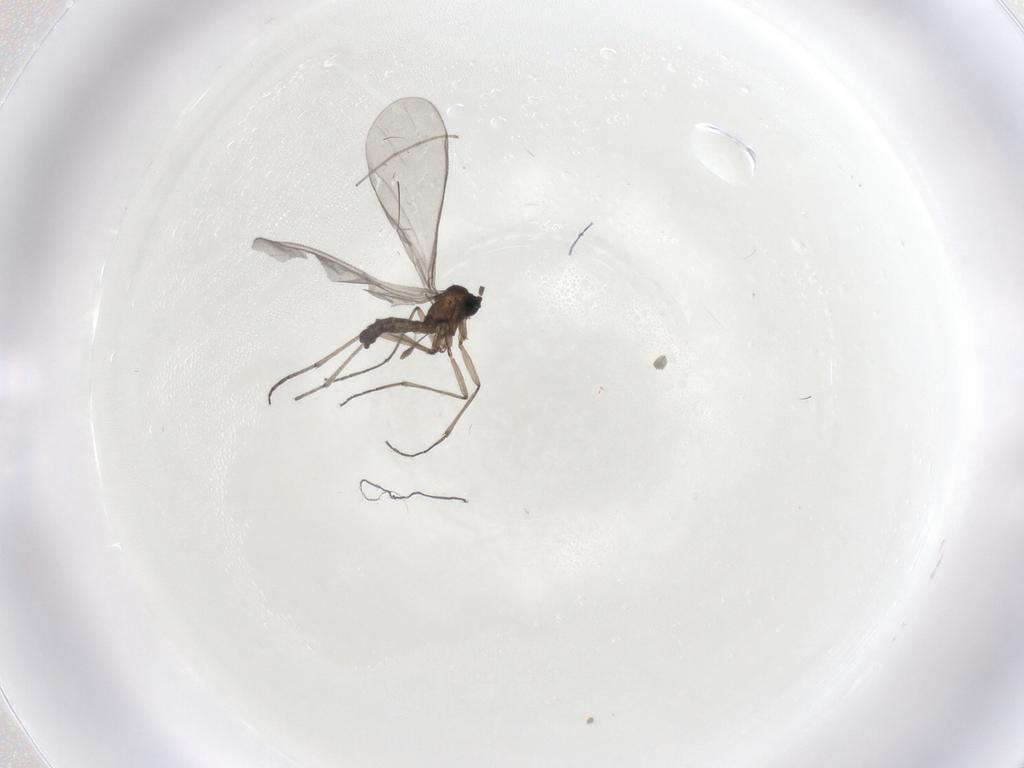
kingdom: Animalia
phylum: Arthropoda
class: Insecta
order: Diptera
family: Sciaridae
